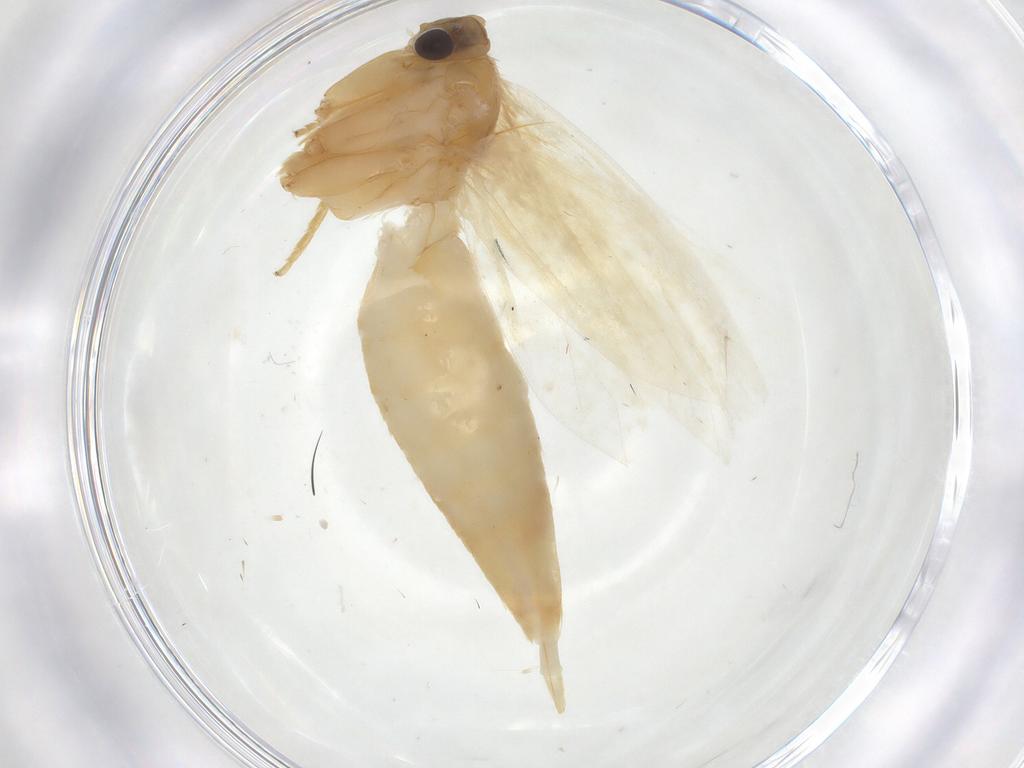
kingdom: Animalia
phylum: Arthropoda
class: Insecta
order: Lepidoptera
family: Tineidae
